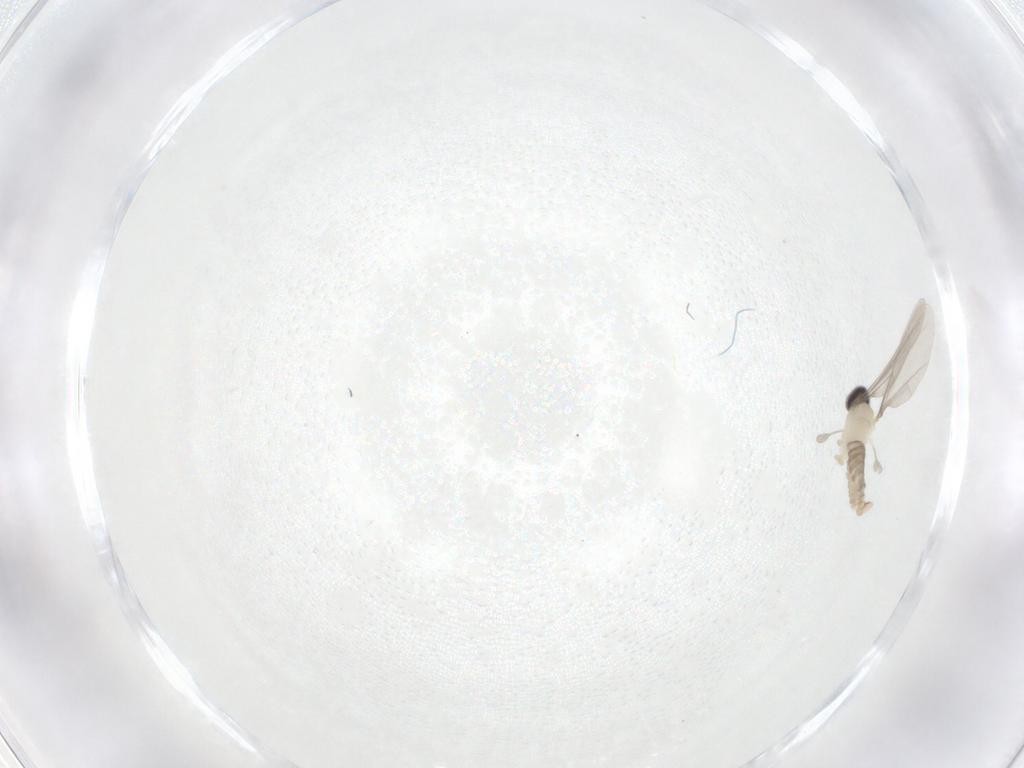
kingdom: Animalia
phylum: Arthropoda
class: Insecta
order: Diptera
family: Cecidomyiidae
